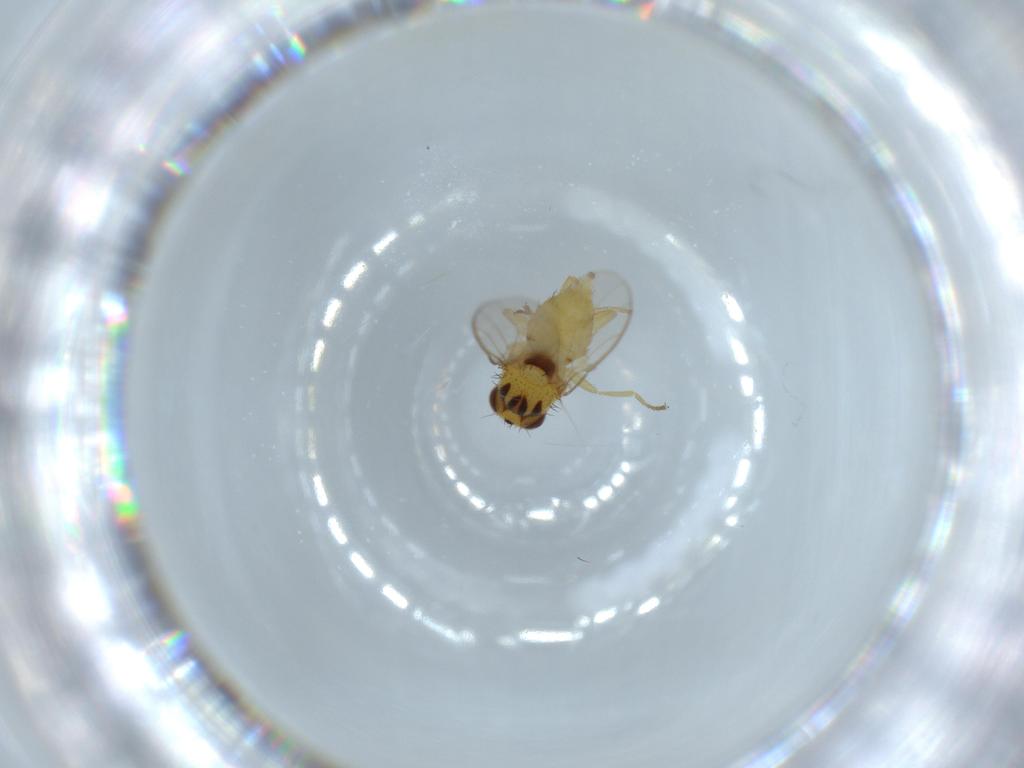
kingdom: Animalia
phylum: Arthropoda
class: Insecta
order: Diptera
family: Chloropidae
